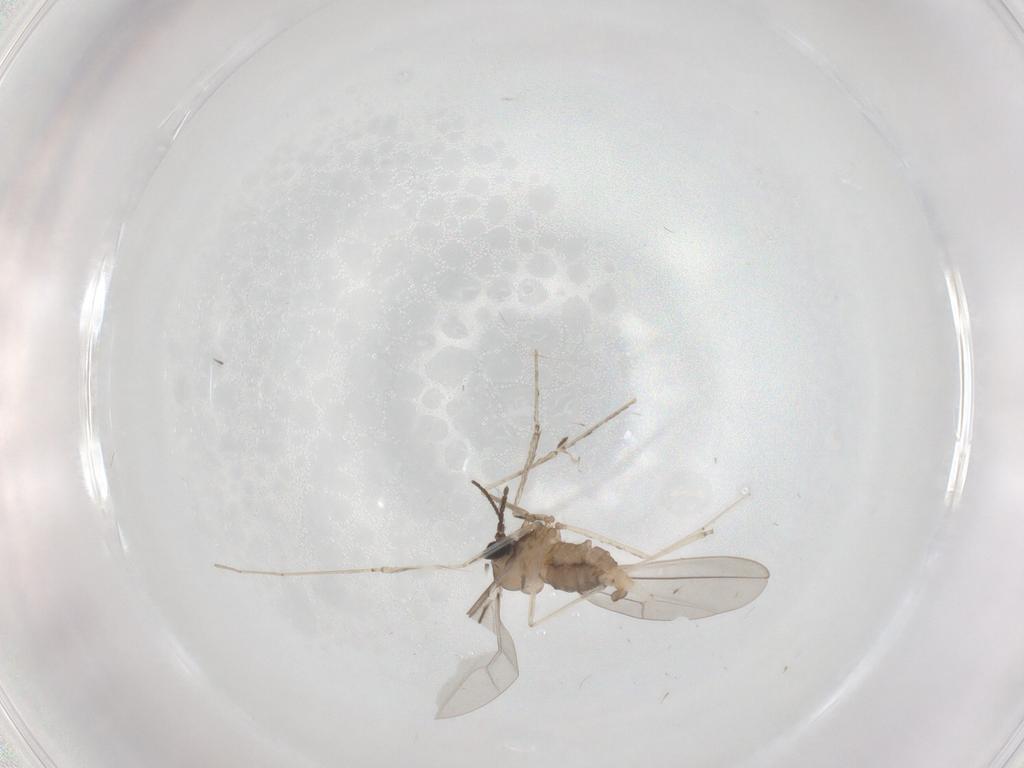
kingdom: Animalia
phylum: Arthropoda
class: Insecta
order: Diptera
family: Cecidomyiidae
